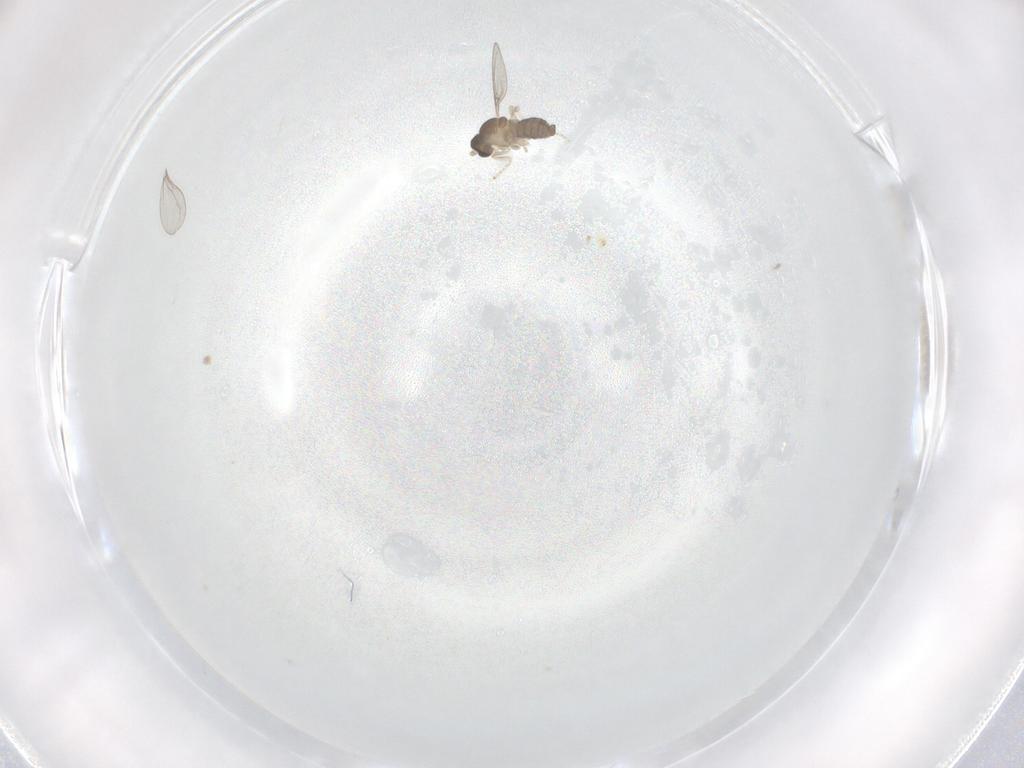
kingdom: Animalia
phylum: Arthropoda
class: Insecta
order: Diptera
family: Cecidomyiidae
